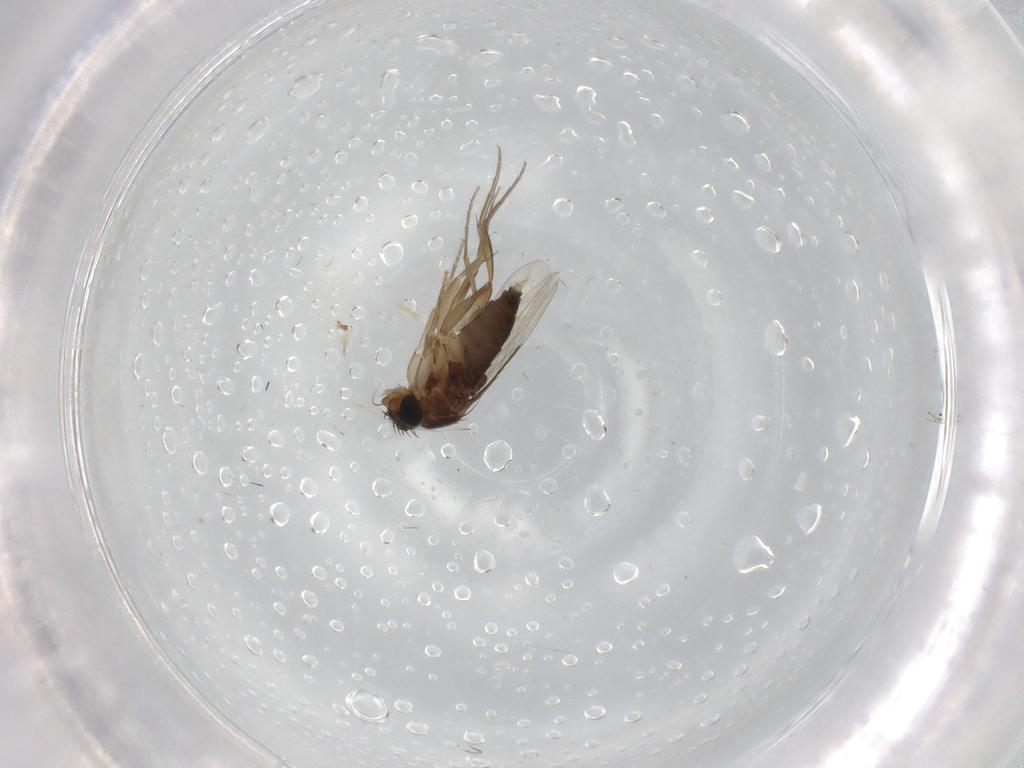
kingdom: Animalia
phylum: Arthropoda
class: Insecta
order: Diptera
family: Phoridae
